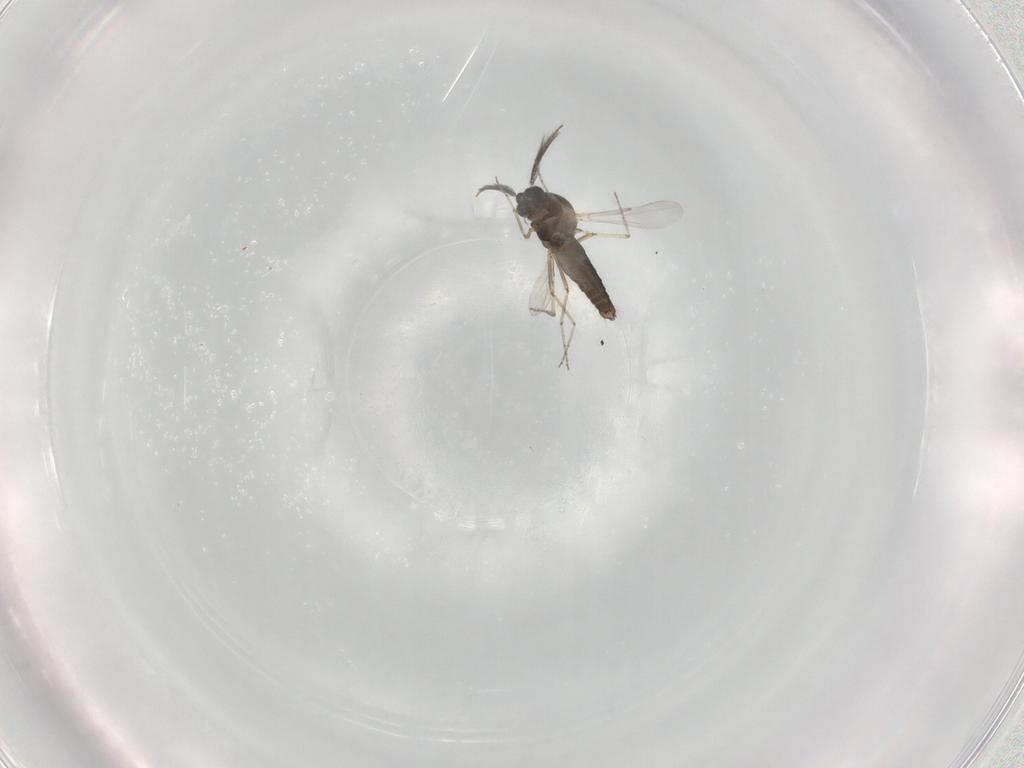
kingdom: Animalia
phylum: Arthropoda
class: Insecta
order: Diptera
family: Ceratopogonidae
